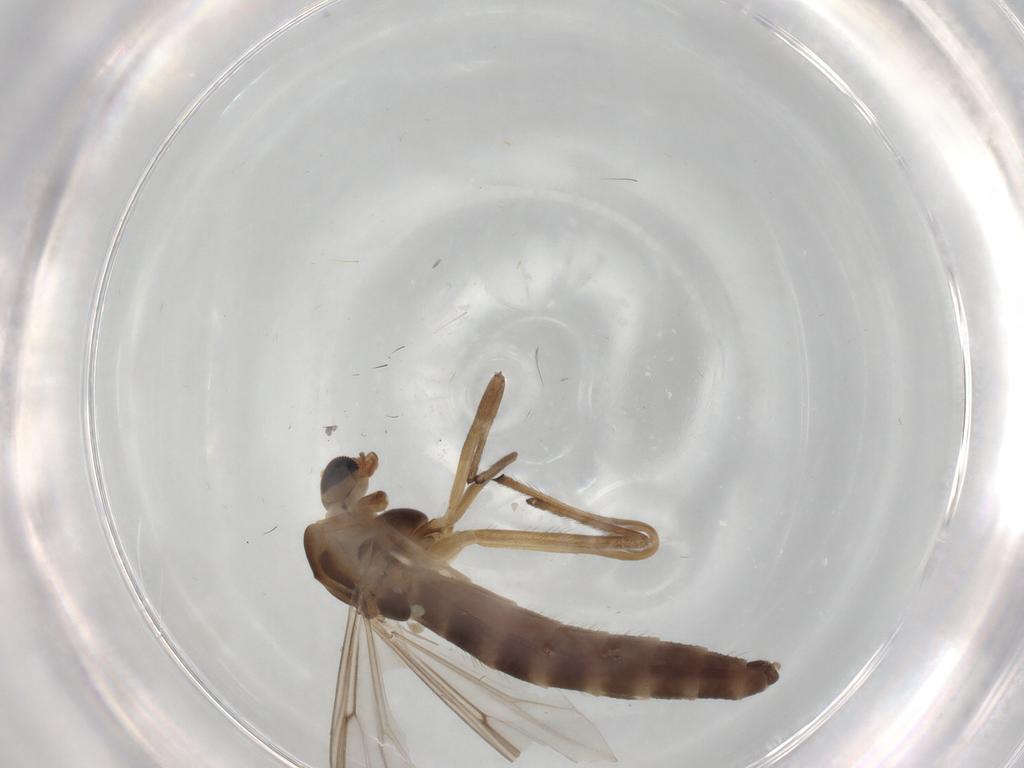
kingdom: Animalia
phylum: Arthropoda
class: Insecta
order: Diptera
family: Chironomidae
